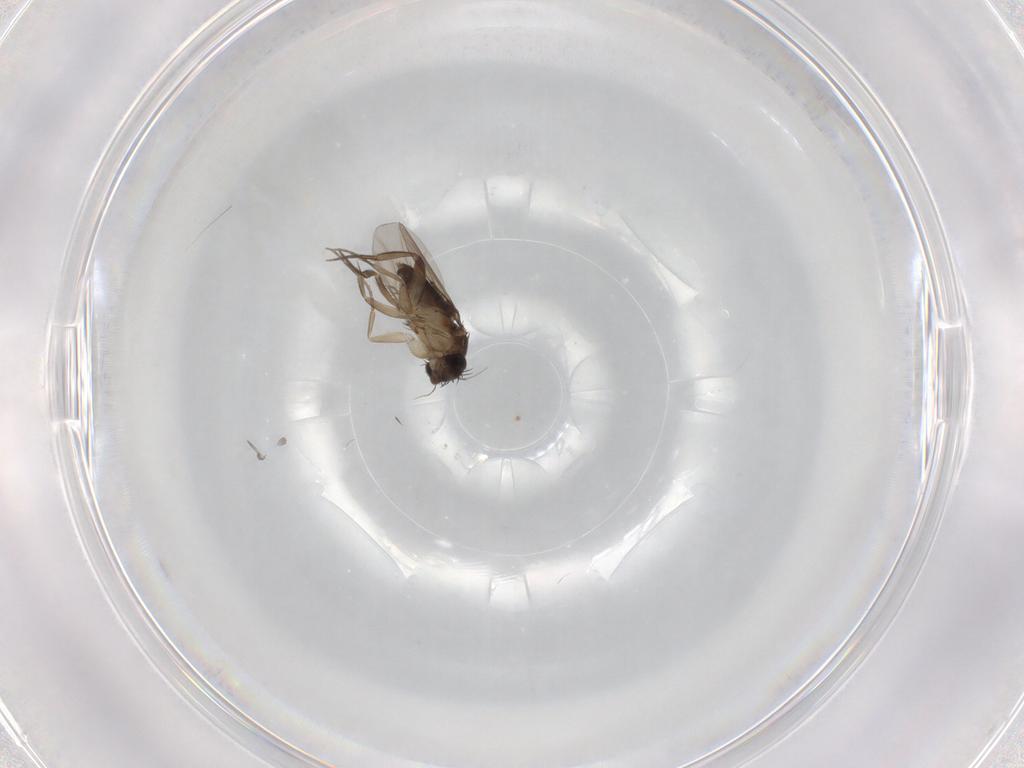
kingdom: Animalia
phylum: Arthropoda
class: Insecta
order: Diptera
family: Phoridae
